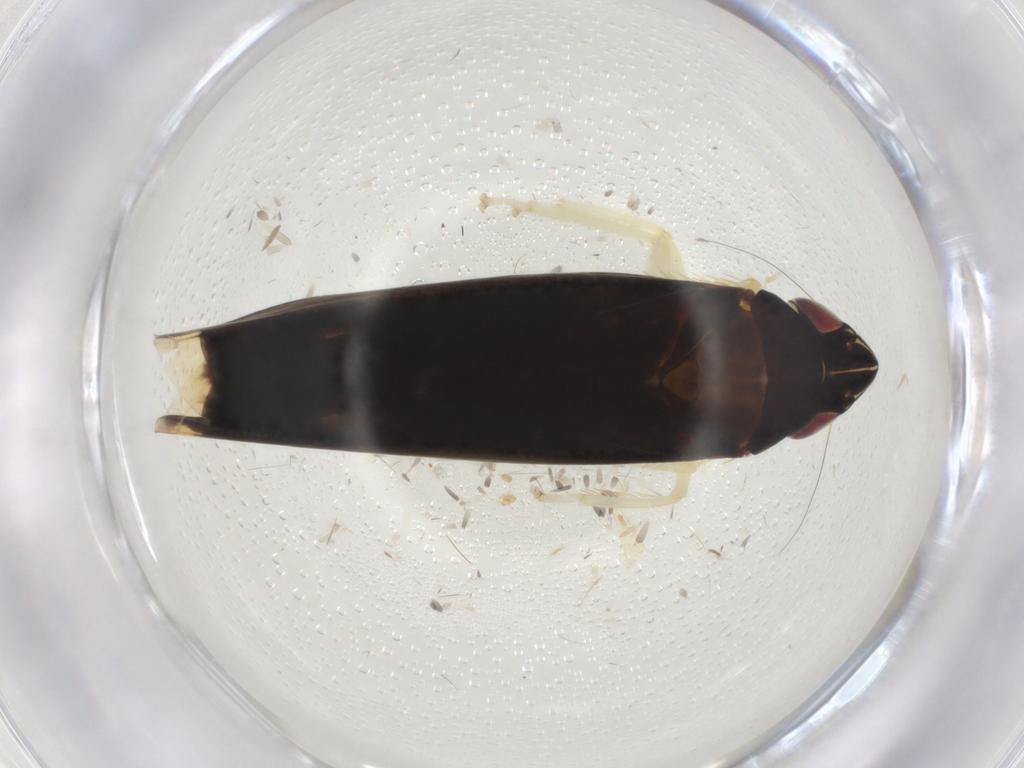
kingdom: Animalia
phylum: Arthropoda
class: Insecta
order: Hemiptera
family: Cicadellidae
